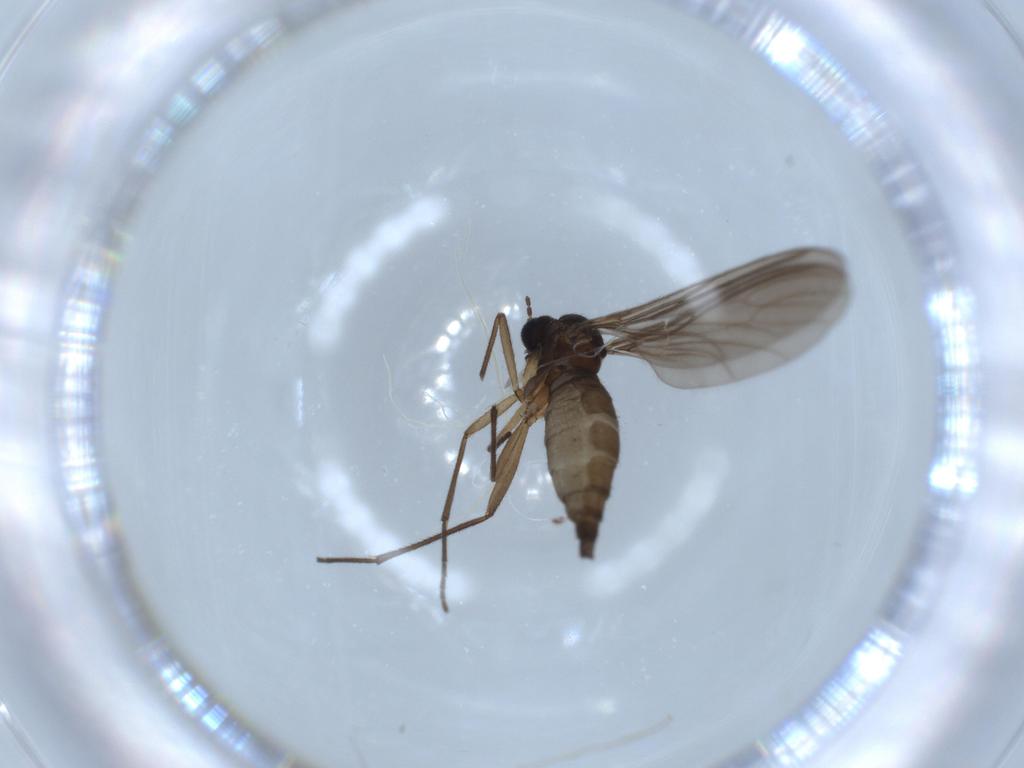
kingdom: Animalia
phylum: Arthropoda
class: Insecta
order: Diptera
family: Sciaridae
